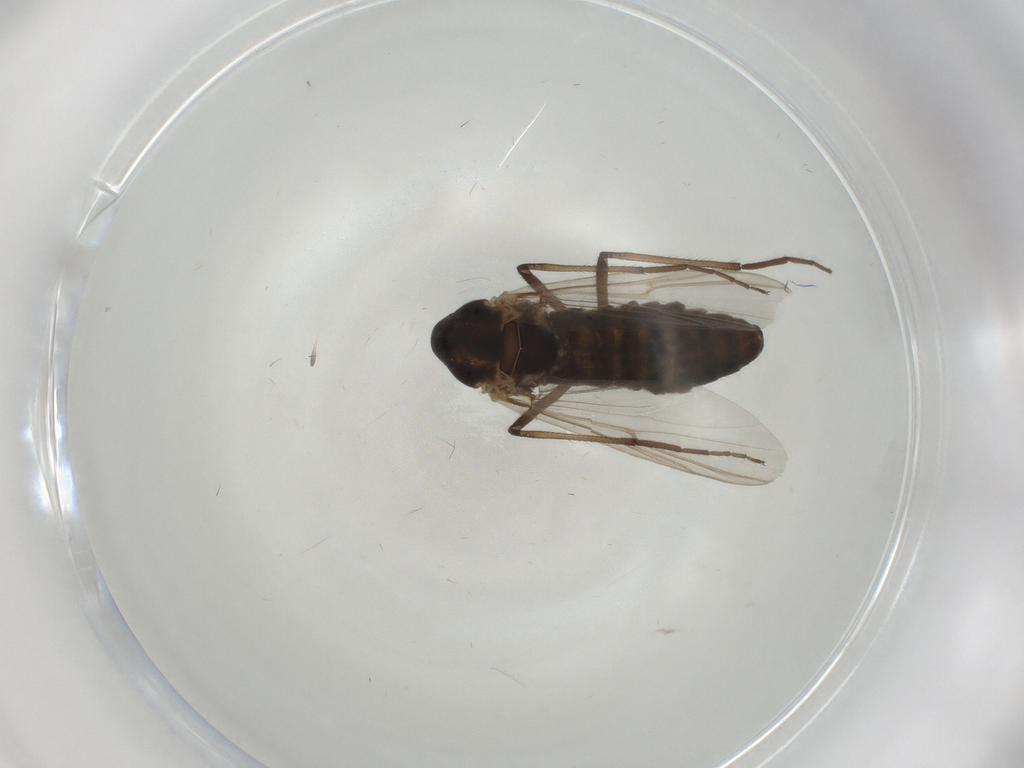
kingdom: Animalia
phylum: Arthropoda
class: Insecta
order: Diptera
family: Chironomidae
